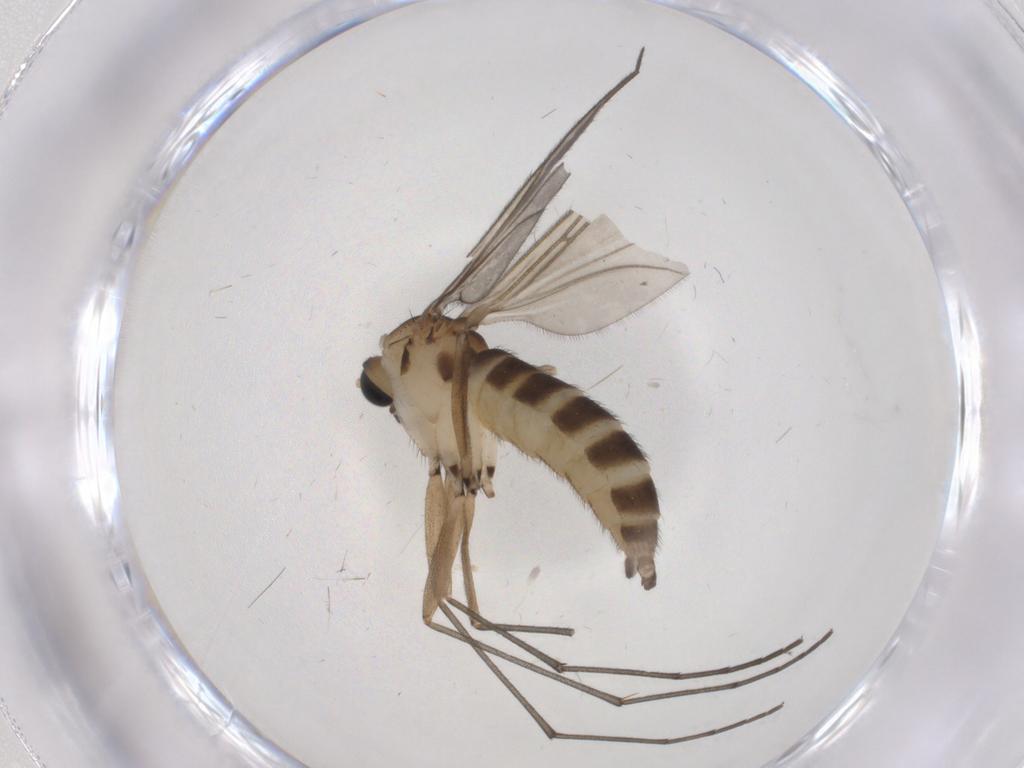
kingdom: Animalia
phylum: Arthropoda
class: Insecta
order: Diptera
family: Sciaridae
